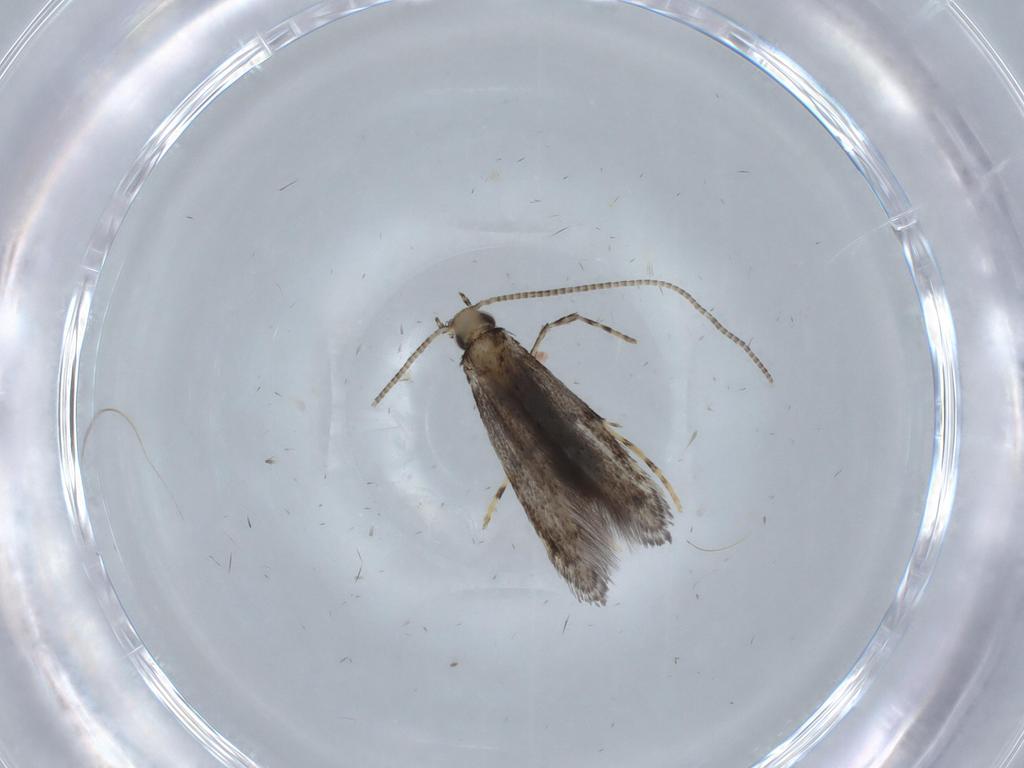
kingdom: Animalia
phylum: Arthropoda
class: Insecta
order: Lepidoptera
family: Gracillariidae
